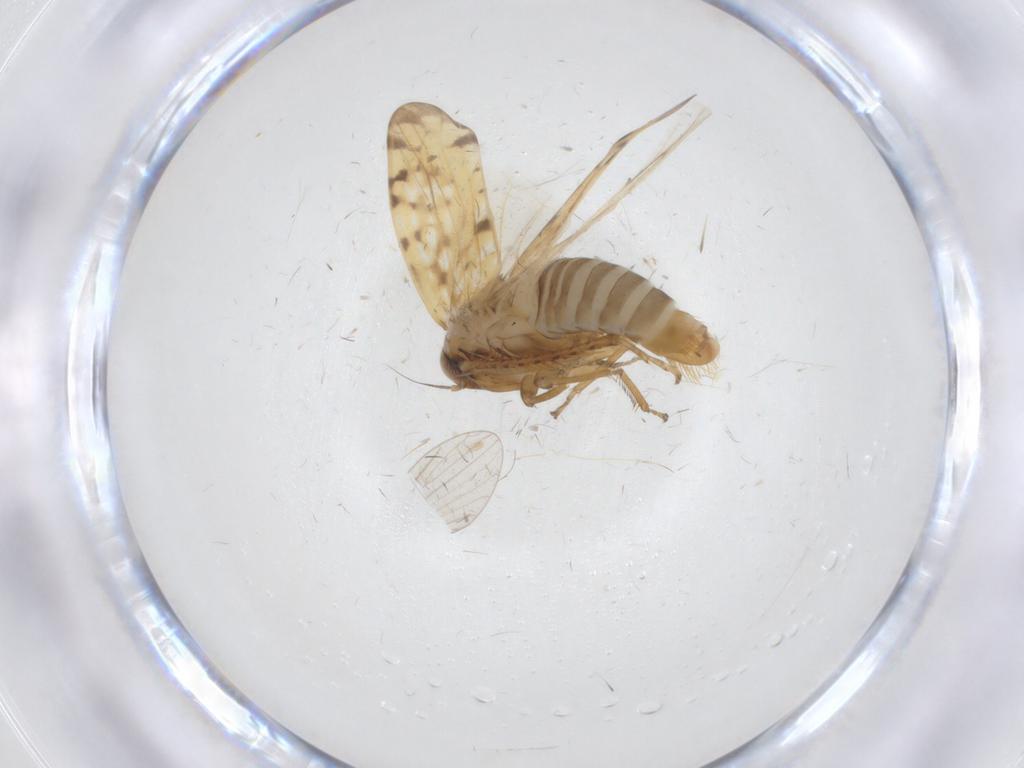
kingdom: Animalia
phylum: Arthropoda
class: Insecta
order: Hemiptera
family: Cicadellidae
